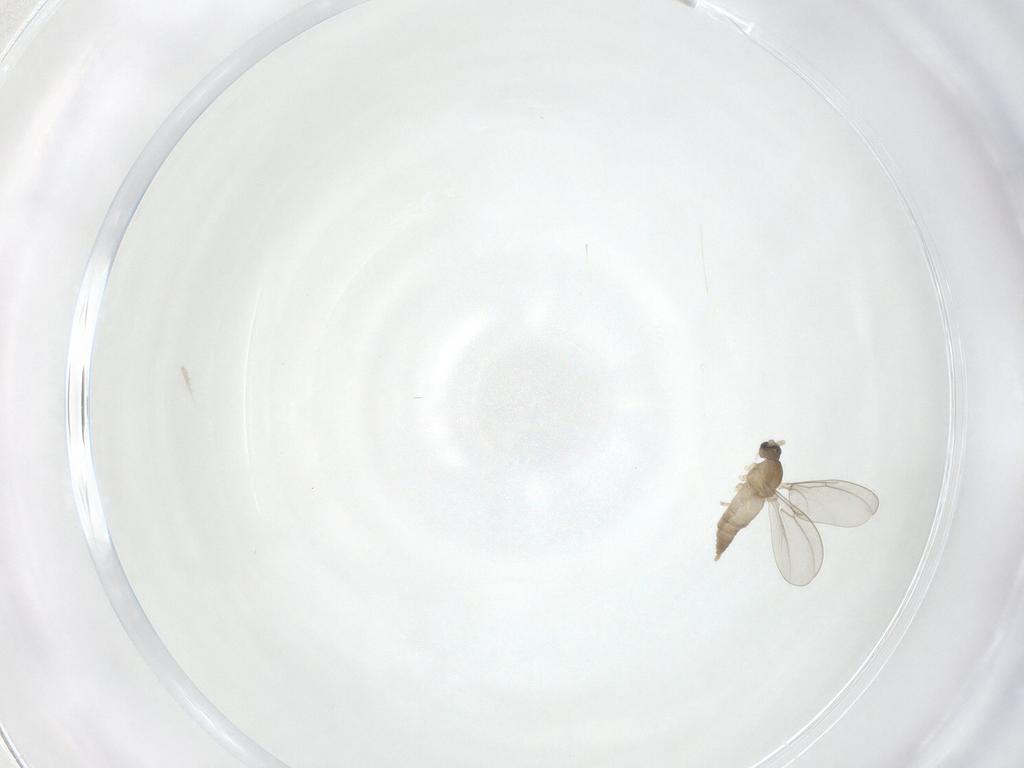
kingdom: Animalia
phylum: Arthropoda
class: Insecta
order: Diptera
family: Cecidomyiidae
